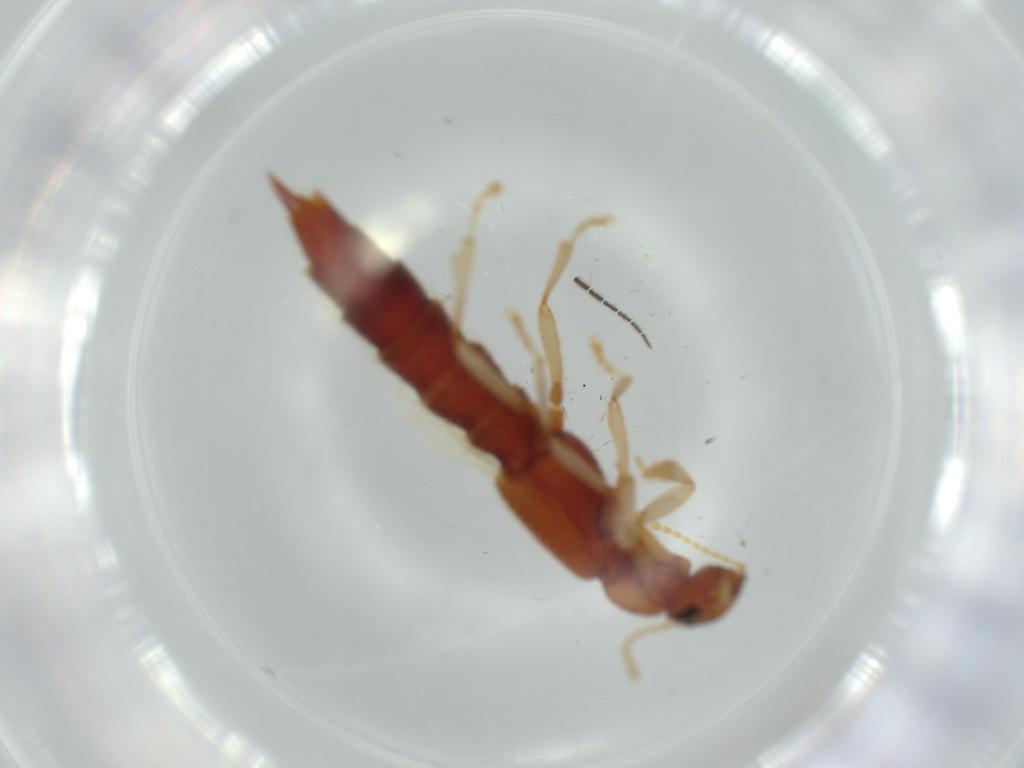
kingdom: Animalia
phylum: Arthropoda
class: Insecta
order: Coleoptera
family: Staphylinidae
